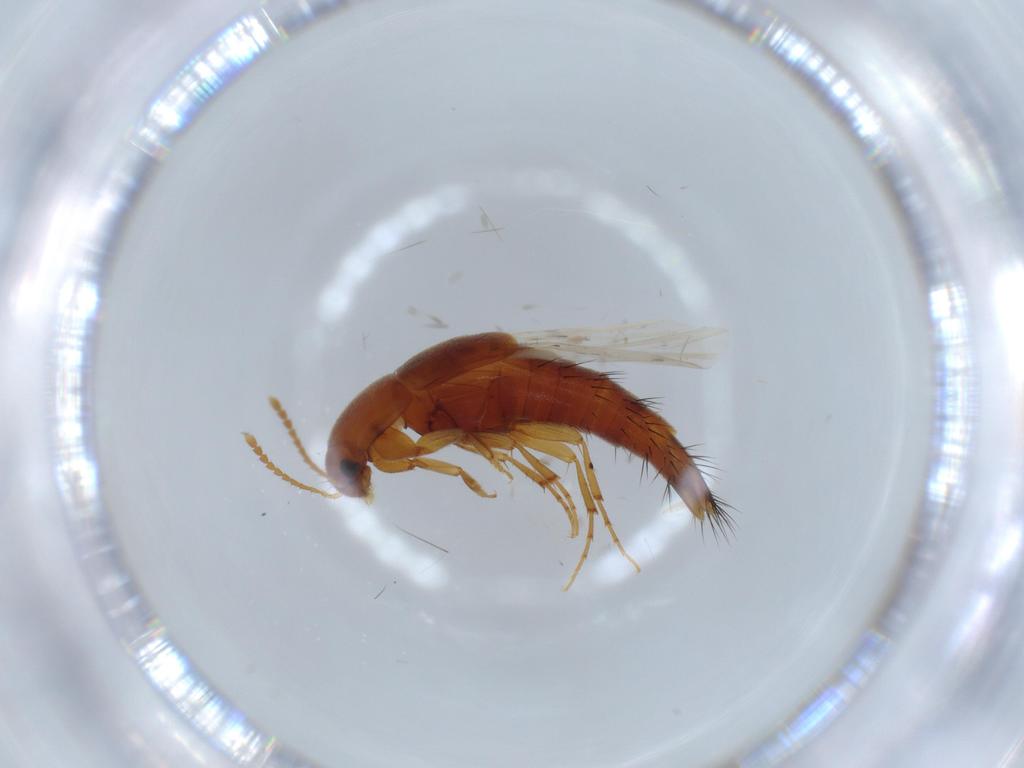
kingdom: Animalia
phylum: Arthropoda
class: Insecta
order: Coleoptera
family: Staphylinidae
